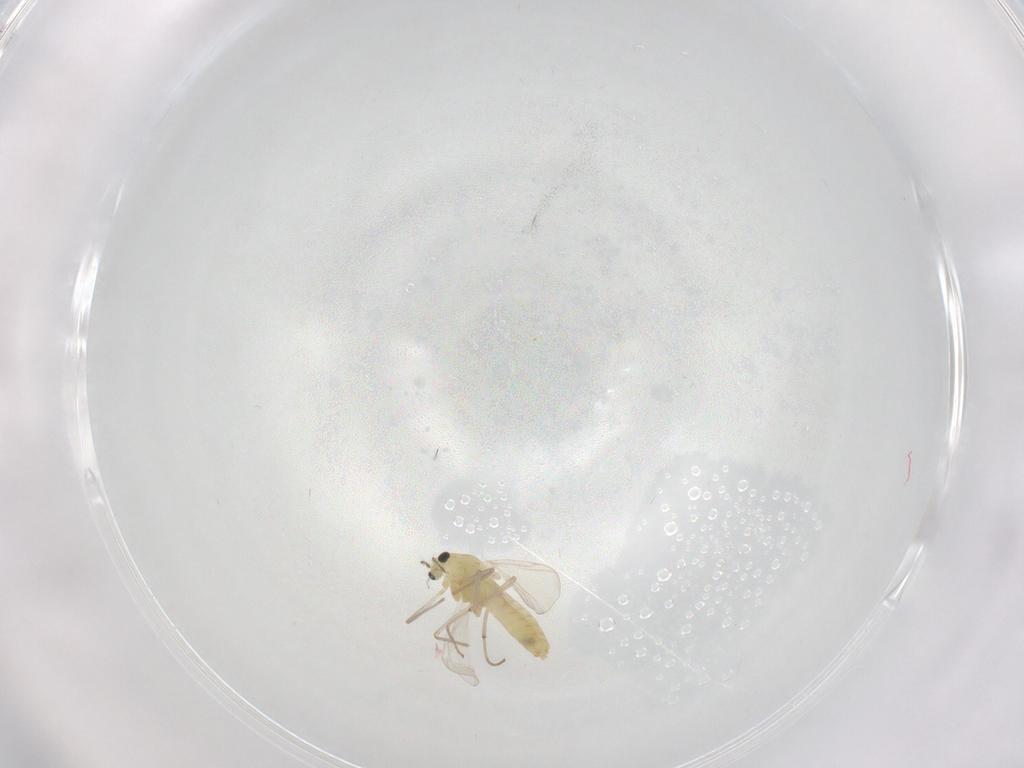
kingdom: Animalia
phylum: Arthropoda
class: Insecta
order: Diptera
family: Chironomidae
